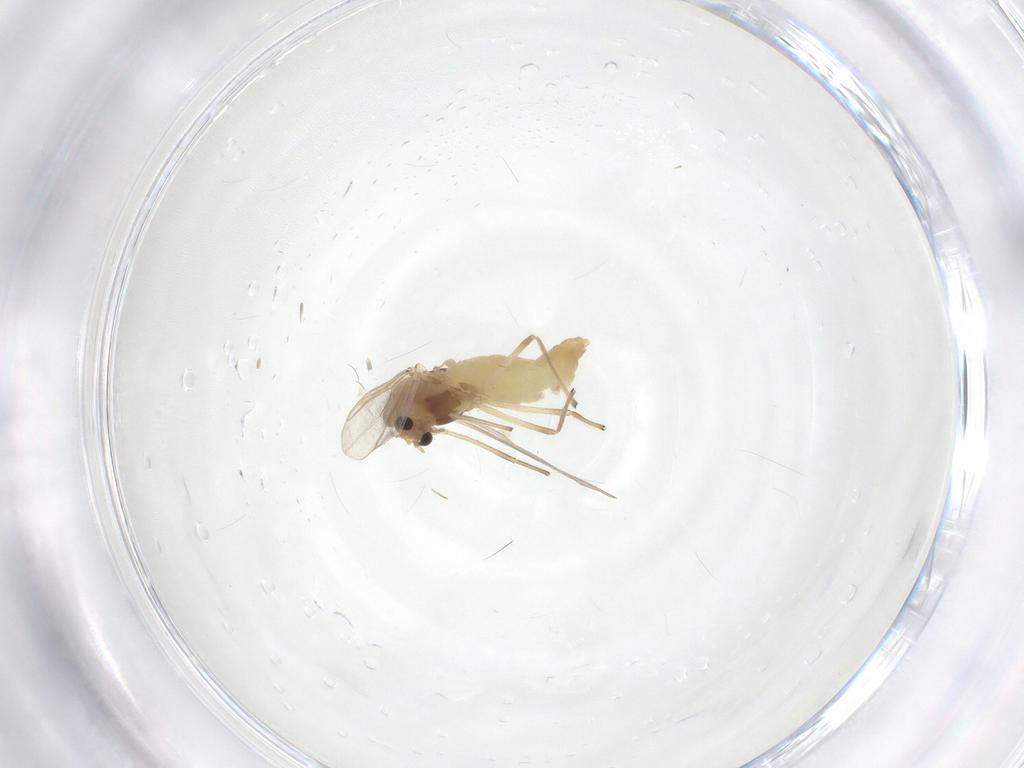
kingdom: Animalia
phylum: Arthropoda
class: Insecta
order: Diptera
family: Chironomidae
